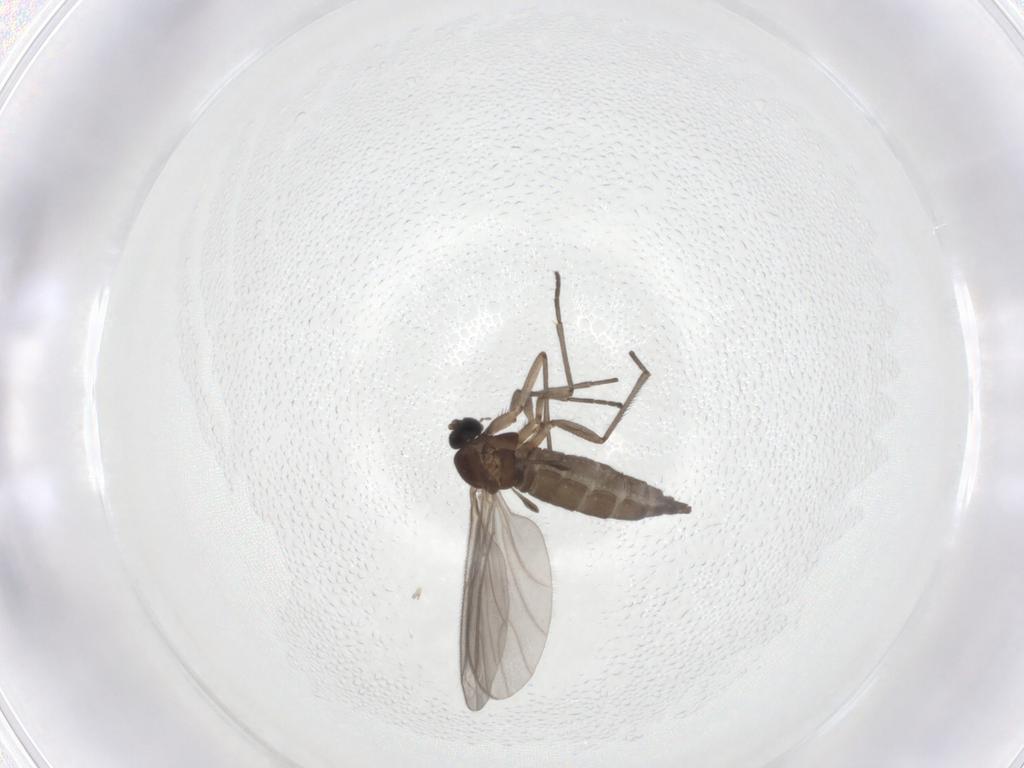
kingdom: Animalia
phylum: Arthropoda
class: Insecta
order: Diptera
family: Sciaridae
